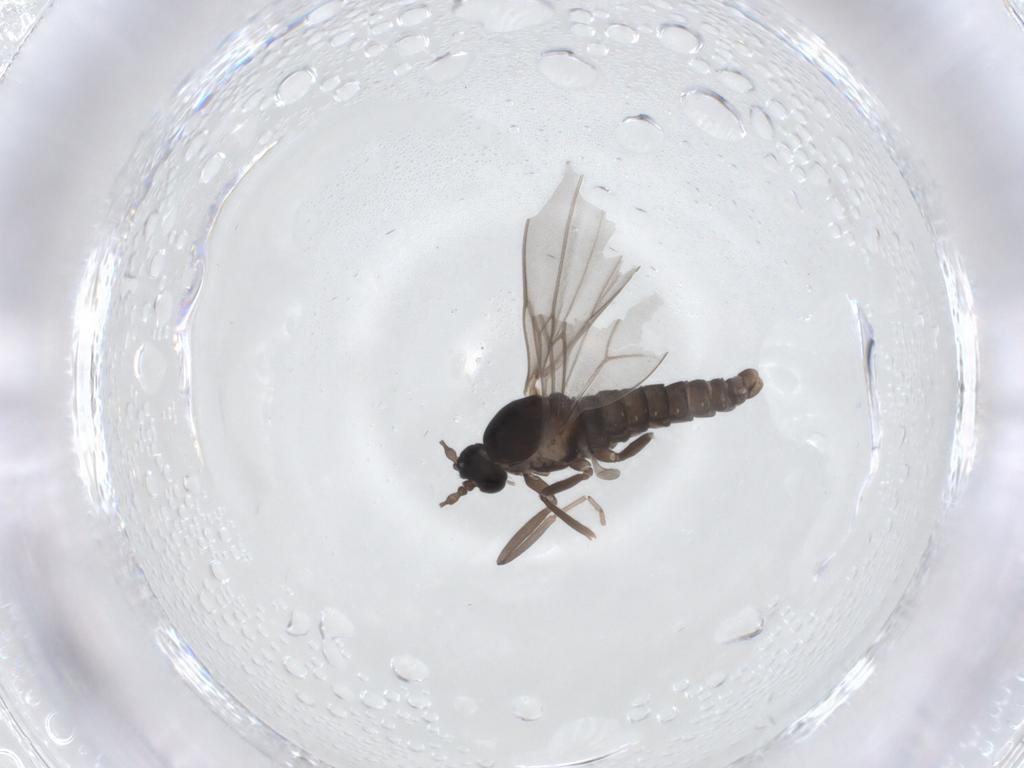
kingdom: Animalia
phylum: Arthropoda
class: Insecta
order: Diptera
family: Cecidomyiidae
